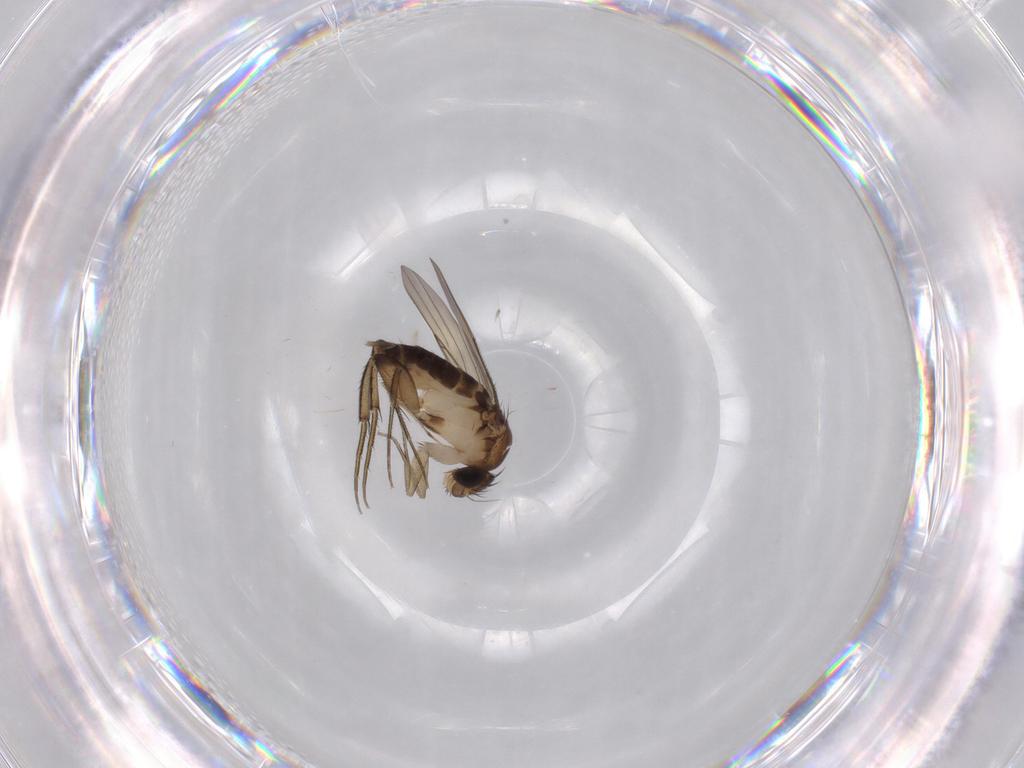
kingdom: Animalia
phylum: Arthropoda
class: Insecta
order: Diptera
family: Phoridae
